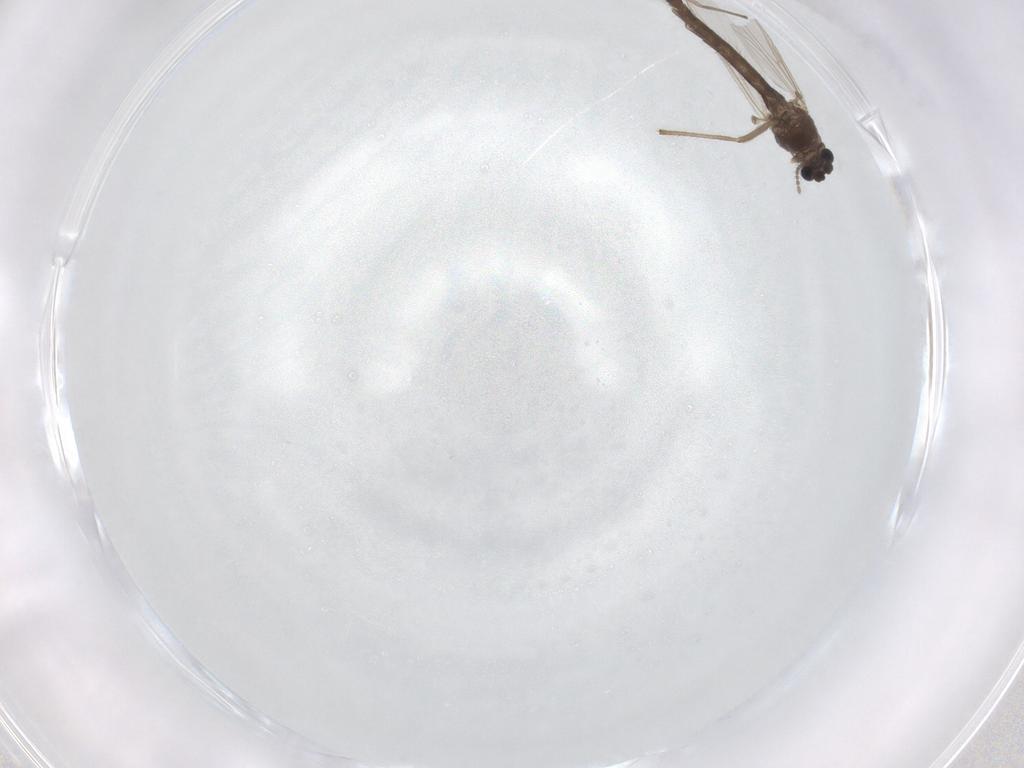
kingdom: Animalia
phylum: Arthropoda
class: Insecta
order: Diptera
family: Chironomidae
